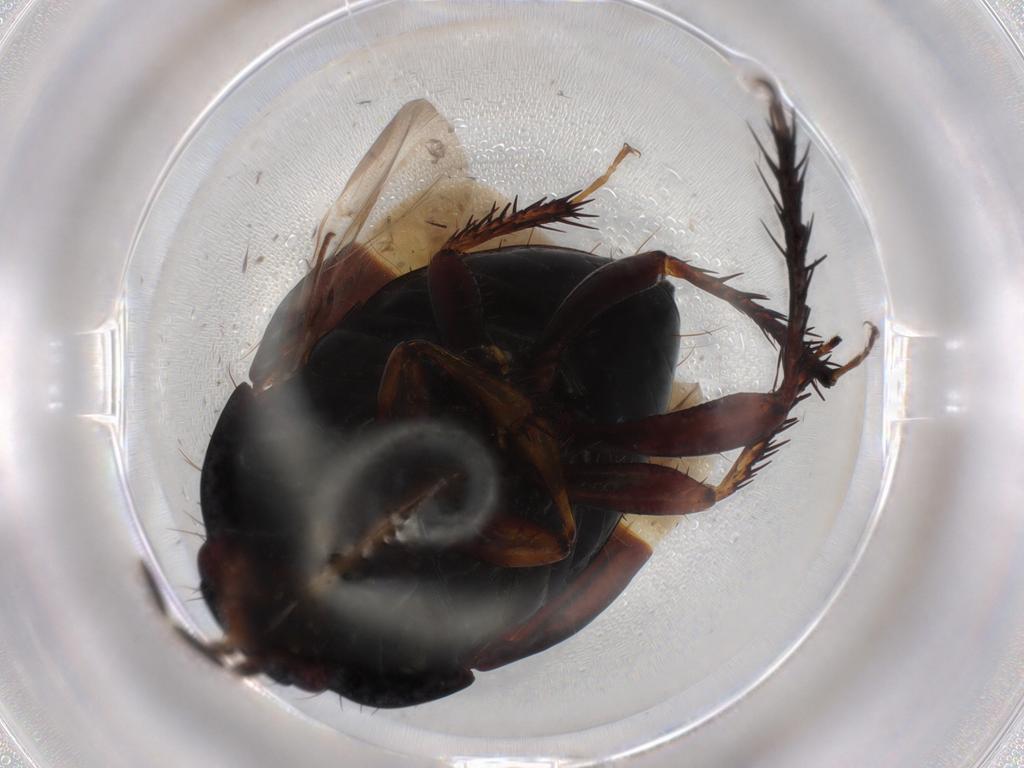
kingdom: Animalia
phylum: Arthropoda
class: Insecta
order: Hemiptera
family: Cydnidae
